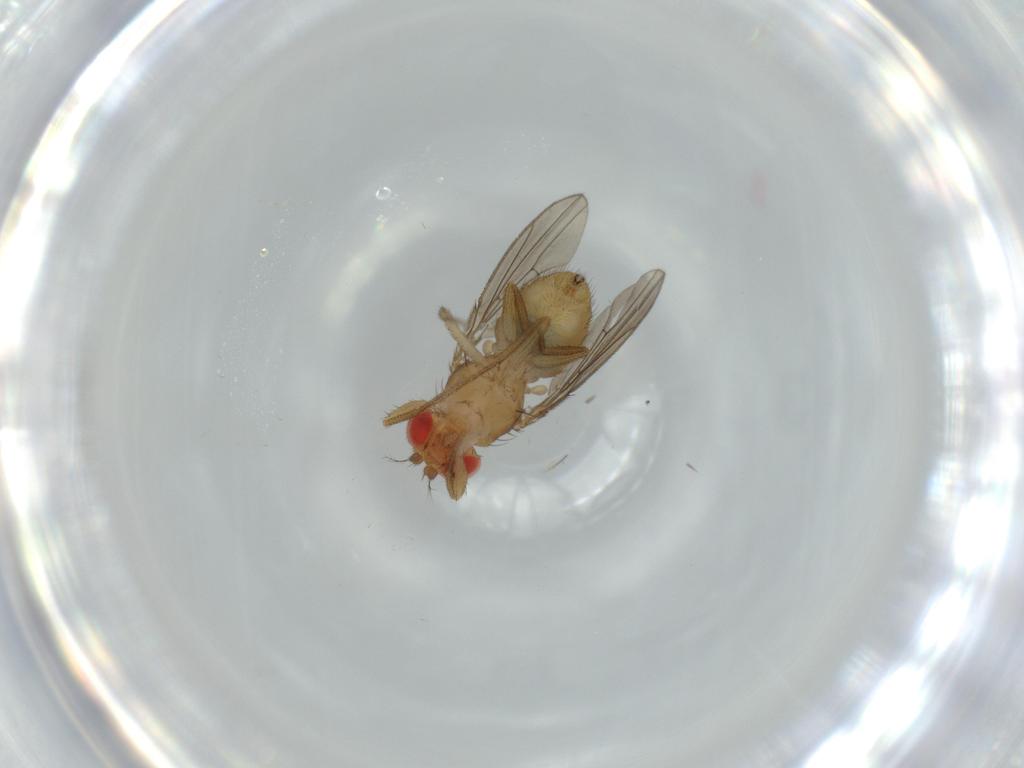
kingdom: Animalia
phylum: Arthropoda
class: Insecta
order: Diptera
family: Drosophilidae
